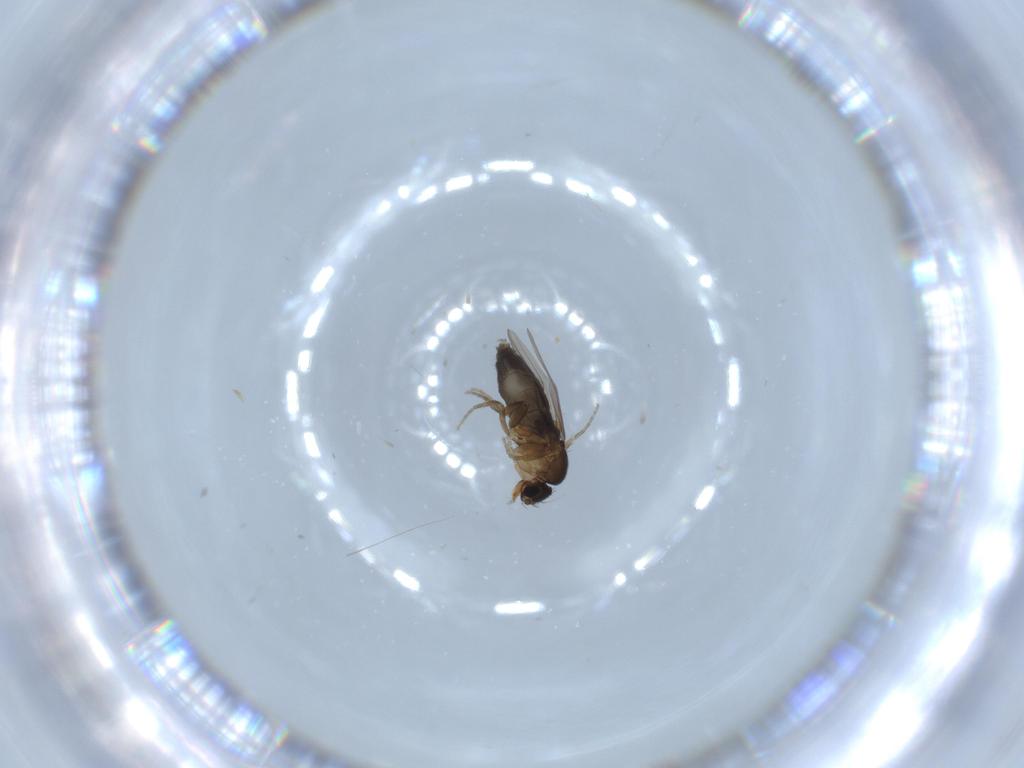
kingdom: Animalia
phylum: Arthropoda
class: Insecta
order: Diptera
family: Phoridae
